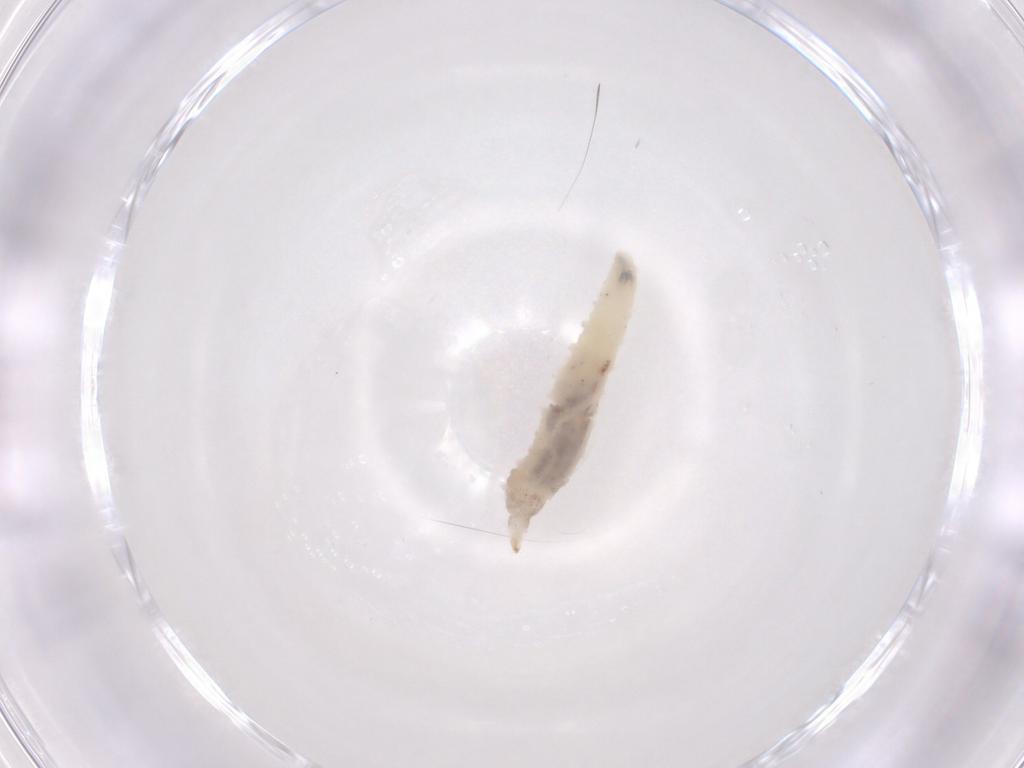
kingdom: Animalia
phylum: Arthropoda
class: Insecta
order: Diptera
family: Drosophilidae
